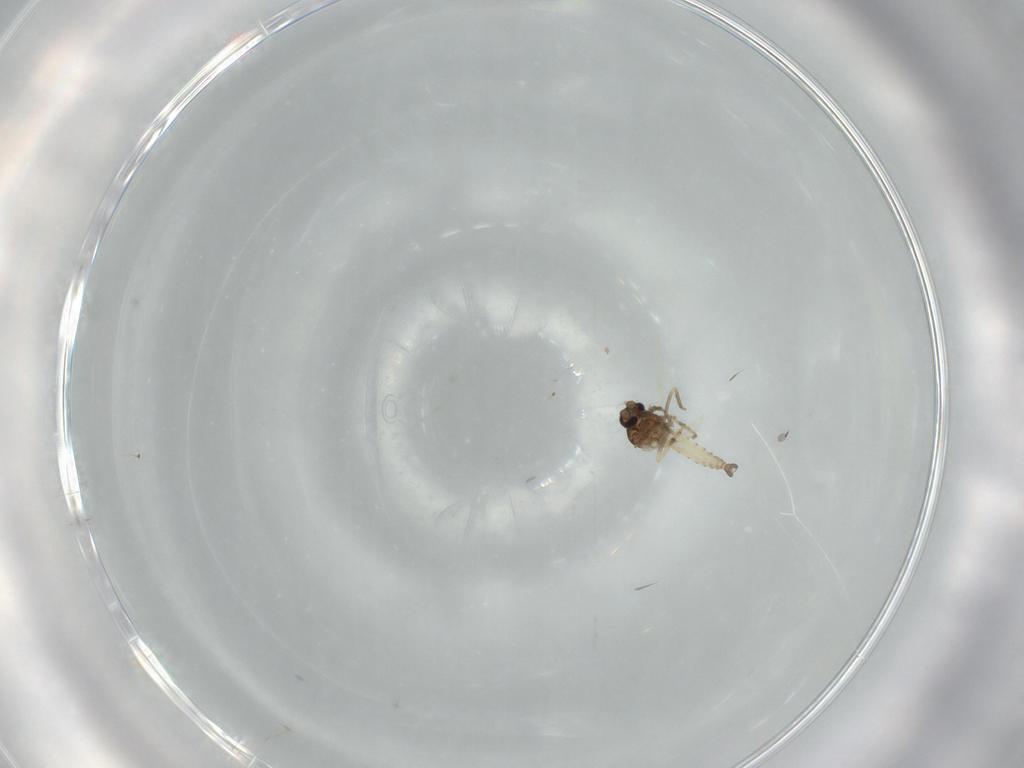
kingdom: Animalia
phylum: Arthropoda
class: Insecta
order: Diptera
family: Ceratopogonidae
